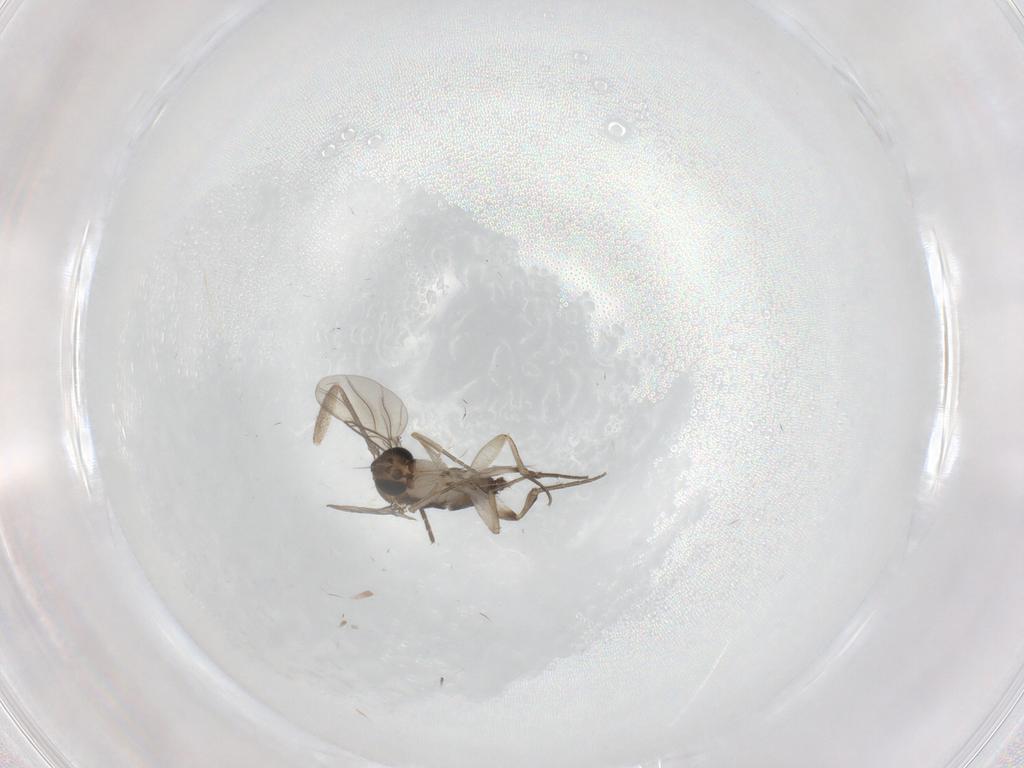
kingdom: Animalia
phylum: Arthropoda
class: Insecta
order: Diptera
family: Phoridae
